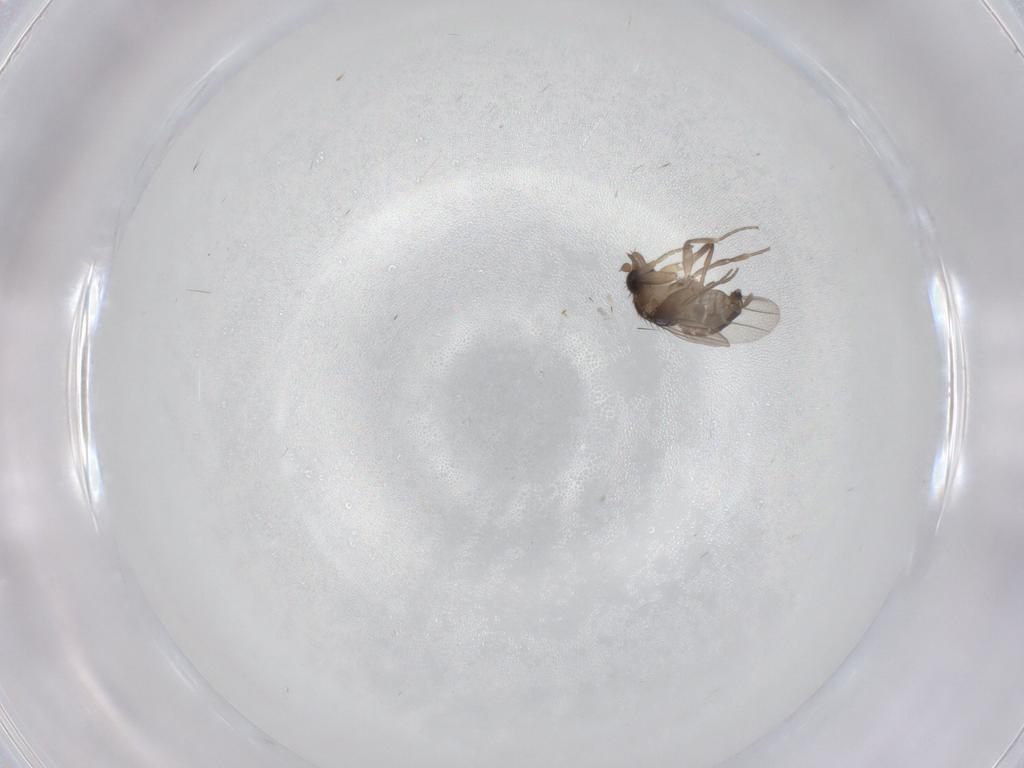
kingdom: Animalia
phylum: Arthropoda
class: Insecta
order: Diptera
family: Phoridae
